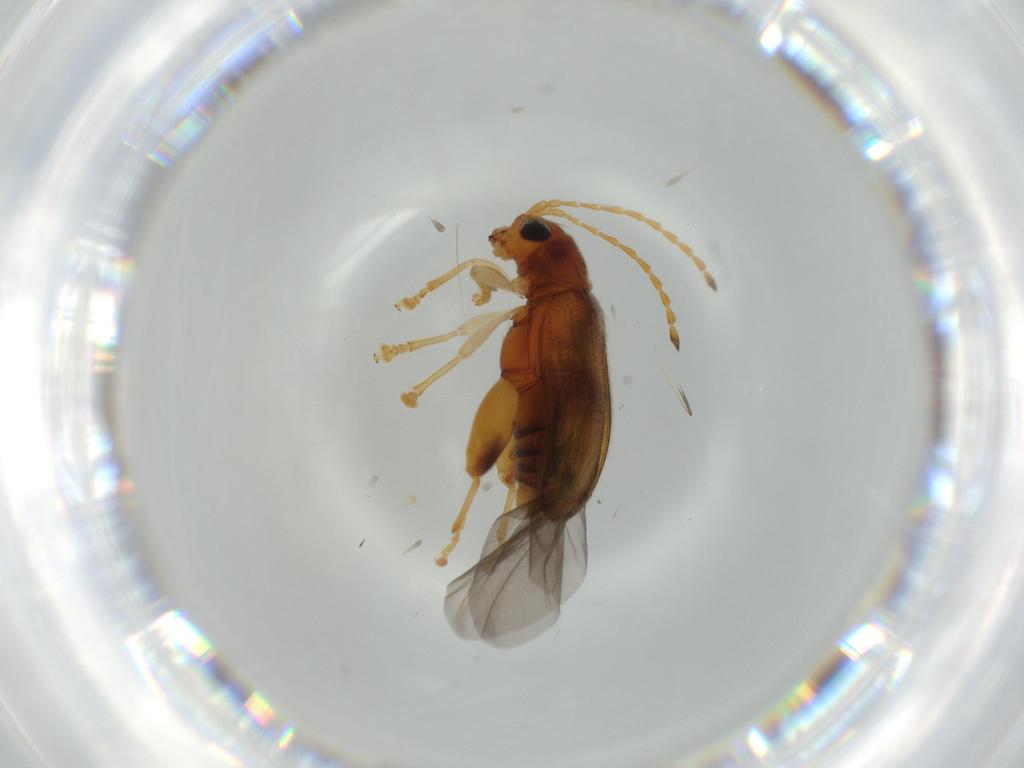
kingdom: Animalia
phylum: Arthropoda
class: Insecta
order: Coleoptera
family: Chrysomelidae
